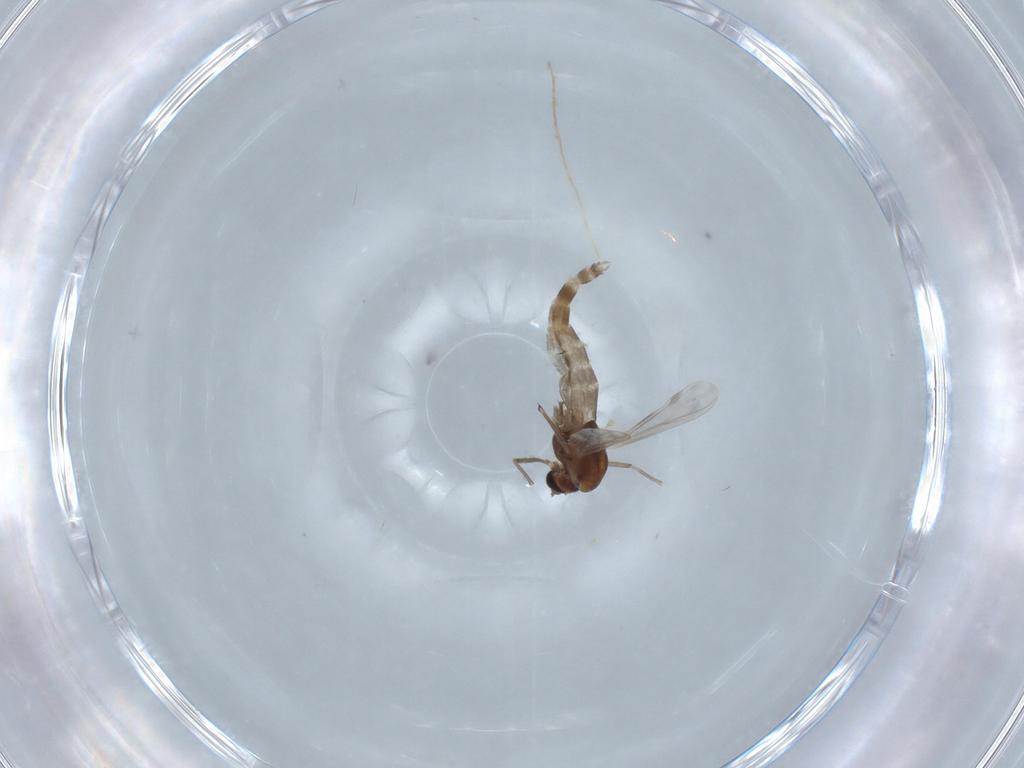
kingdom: Animalia
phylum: Arthropoda
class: Insecta
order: Diptera
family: Chironomidae
